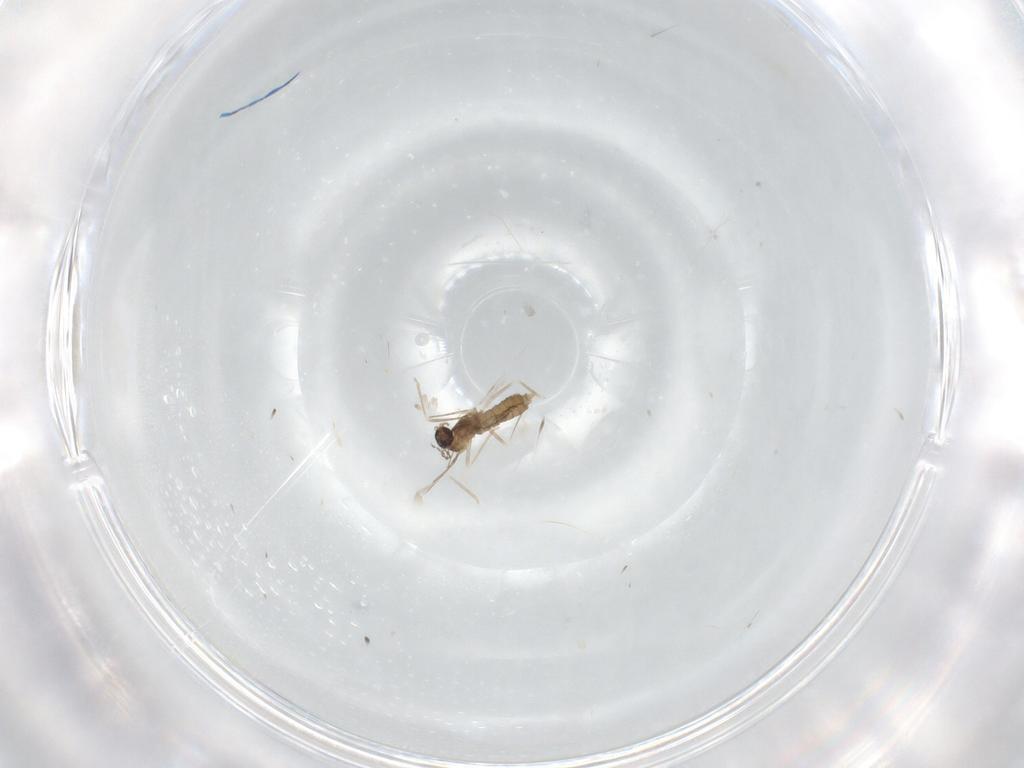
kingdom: Animalia
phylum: Arthropoda
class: Insecta
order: Diptera
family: Cecidomyiidae
